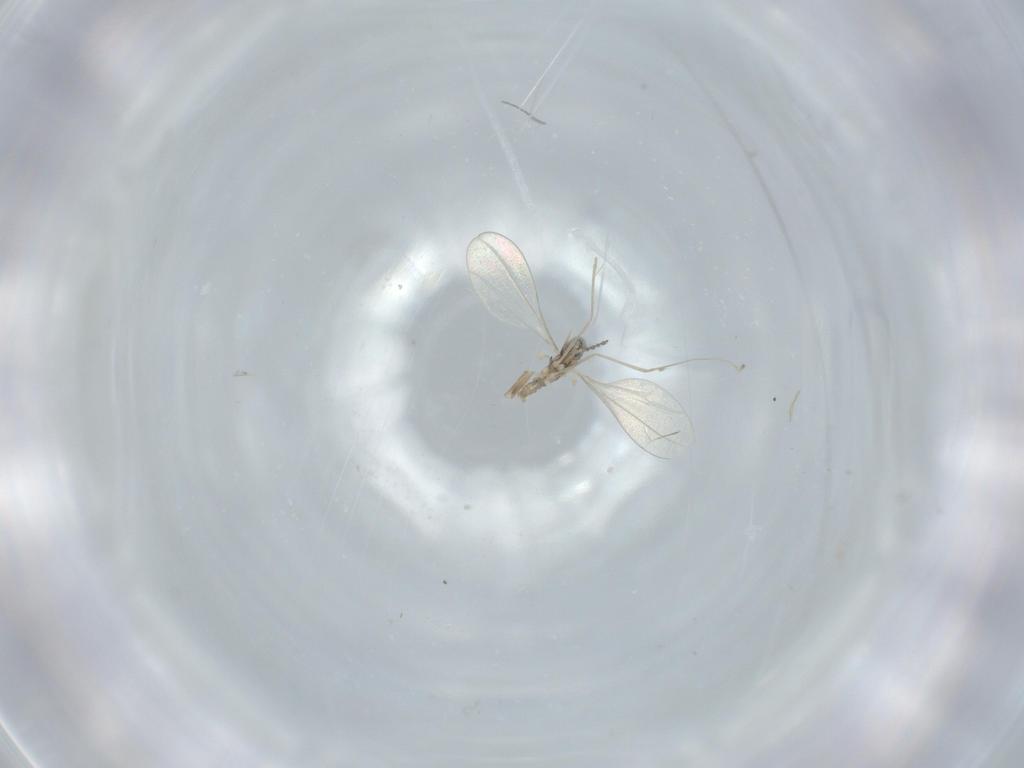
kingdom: Animalia
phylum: Arthropoda
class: Insecta
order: Diptera
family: Cecidomyiidae
